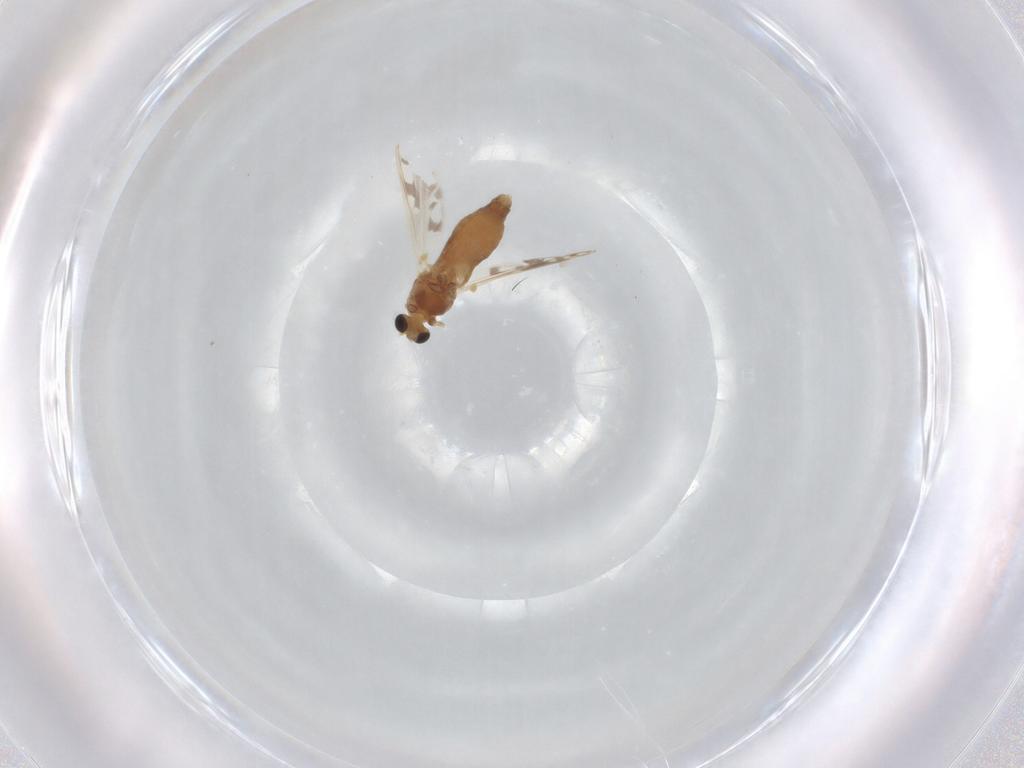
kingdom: Animalia
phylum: Arthropoda
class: Insecta
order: Diptera
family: Chironomidae
